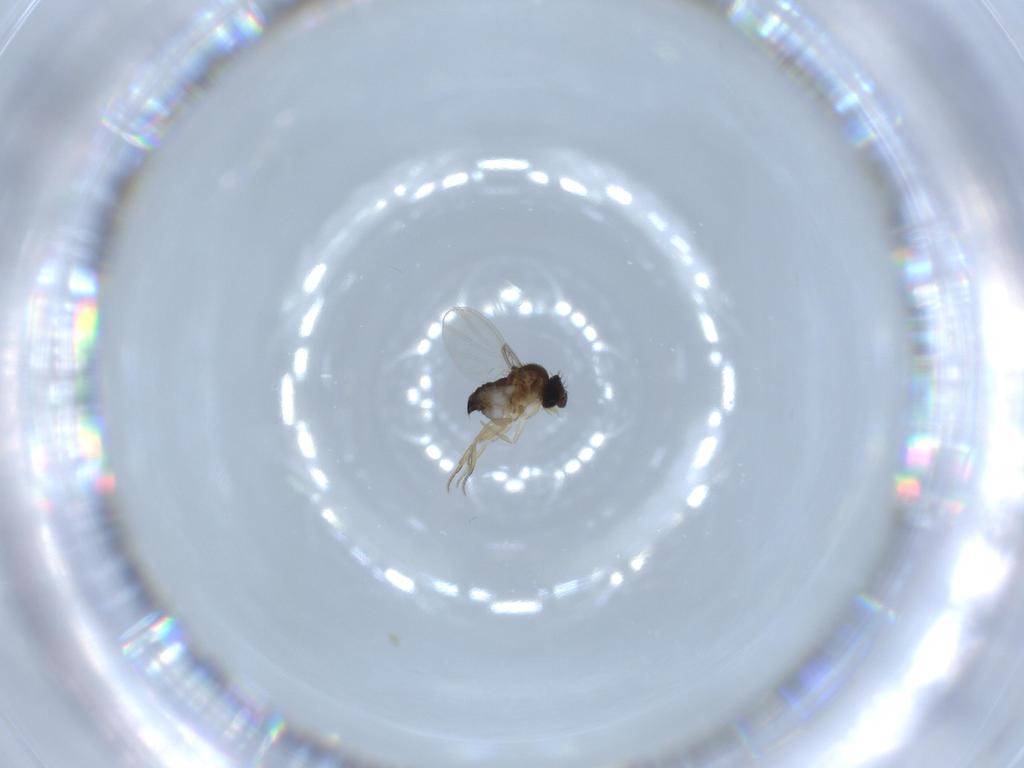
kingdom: Animalia
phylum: Arthropoda
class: Insecta
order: Diptera
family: Phoridae
